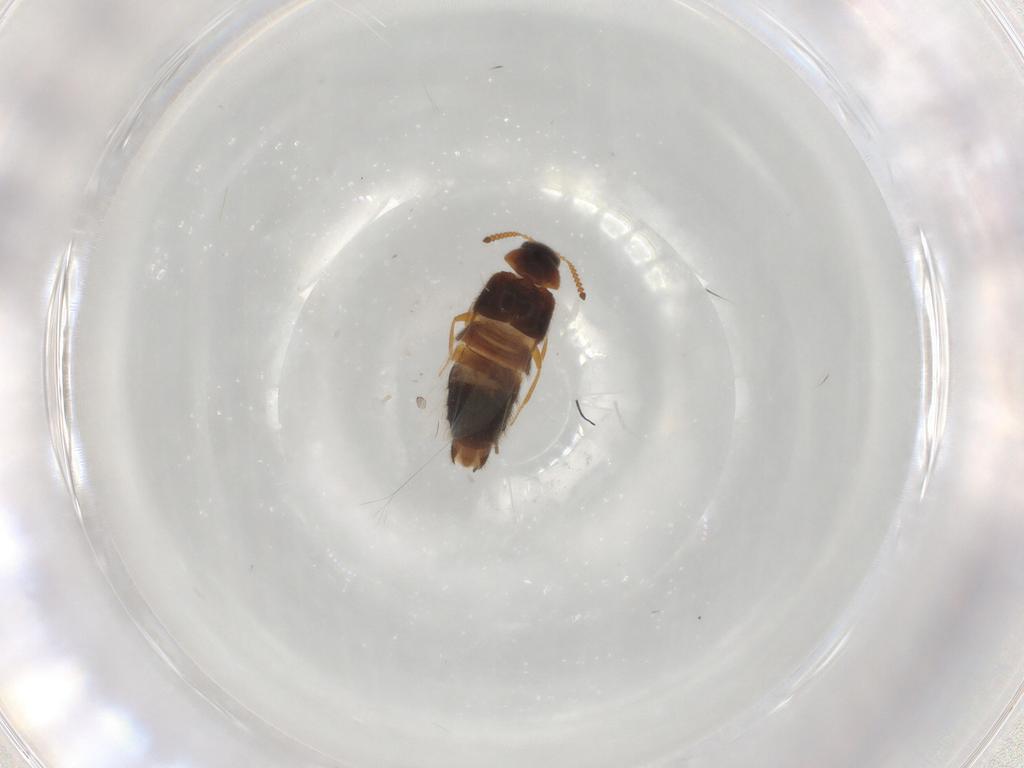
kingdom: Animalia
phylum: Arthropoda
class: Insecta
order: Coleoptera
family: Staphylinidae
